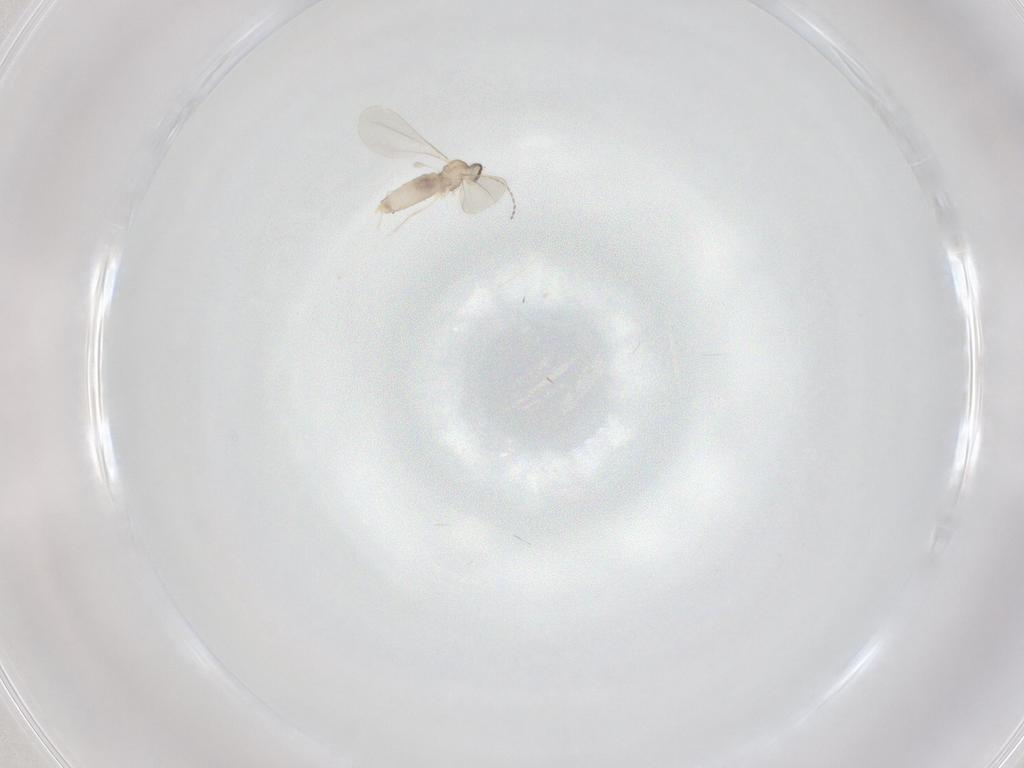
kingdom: Animalia
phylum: Arthropoda
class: Insecta
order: Diptera
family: Cecidomyiidae
